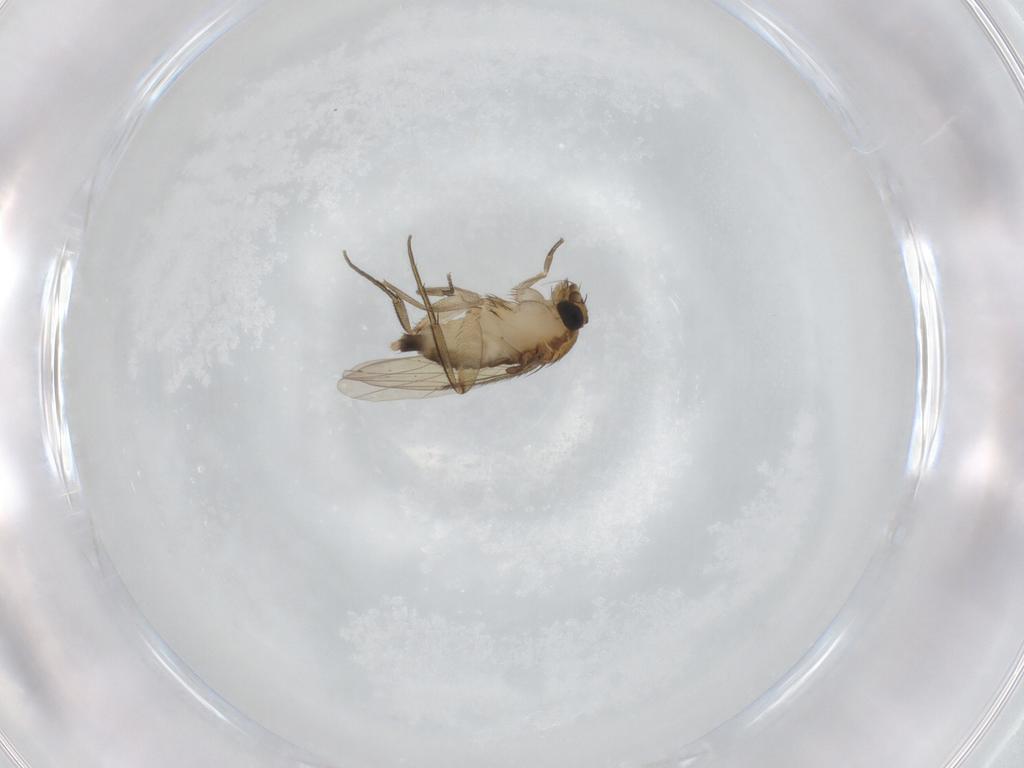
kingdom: Animalia
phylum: Arthropoda
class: Insecta
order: Diptera
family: Phoridae
